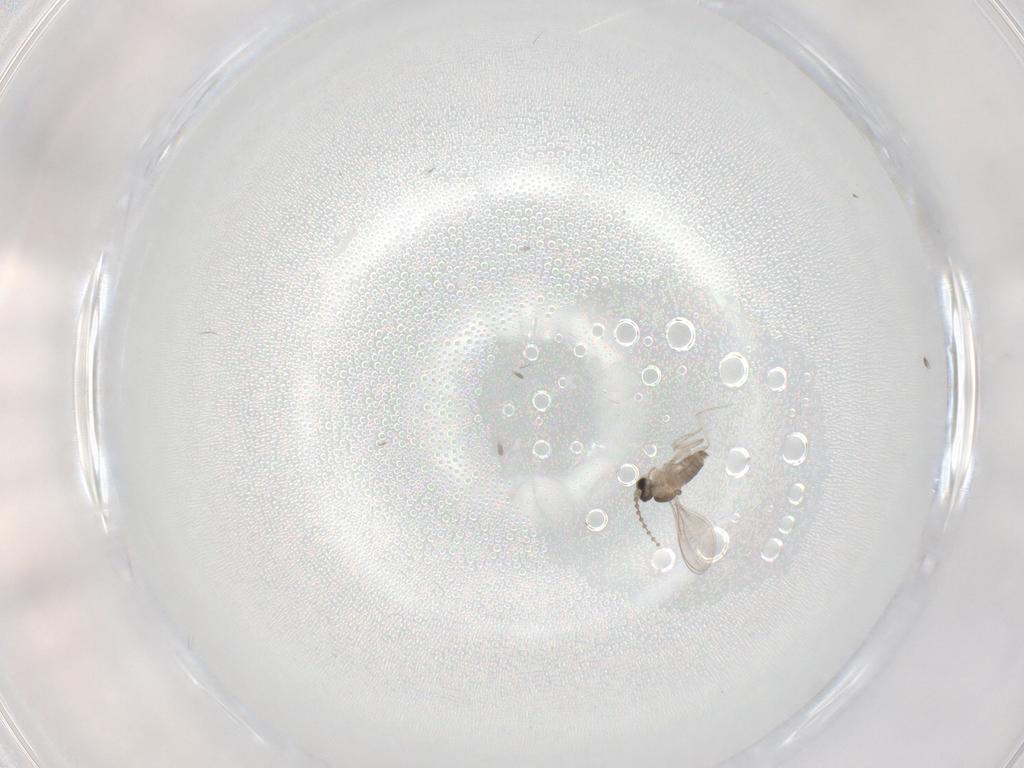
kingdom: Animalia
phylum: Arthropoda
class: Insecta
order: Diptera
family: Cecidomyiidae
